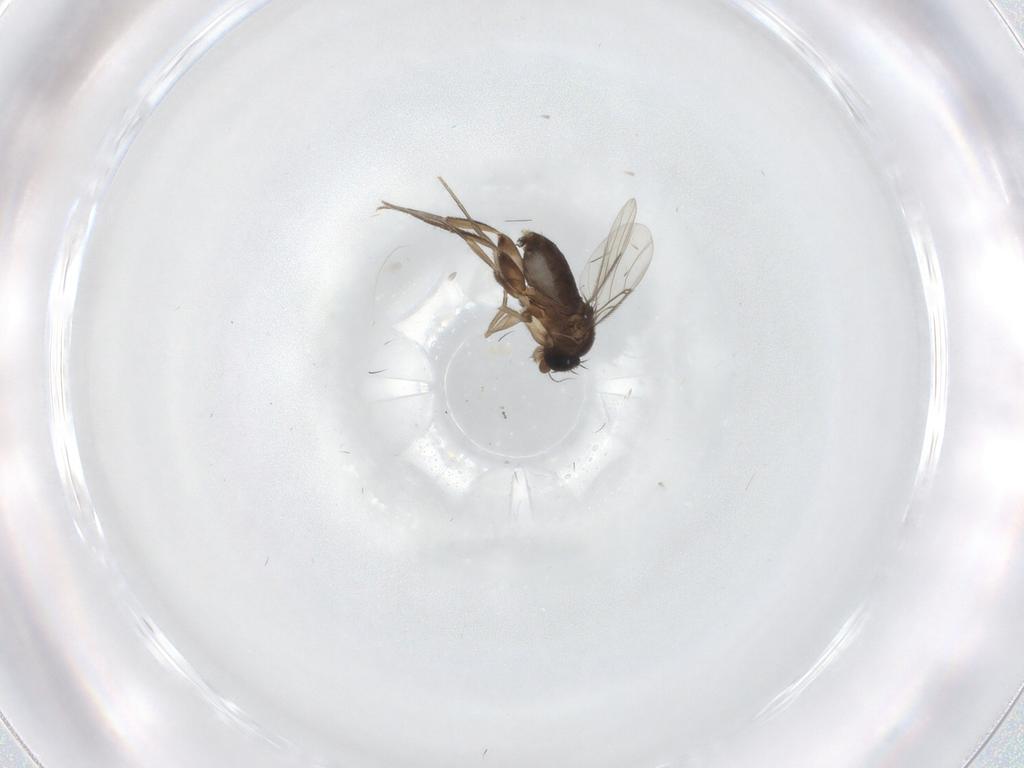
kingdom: Animalia
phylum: Arthropoda
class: Insecta
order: Diptera
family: Phoridae
